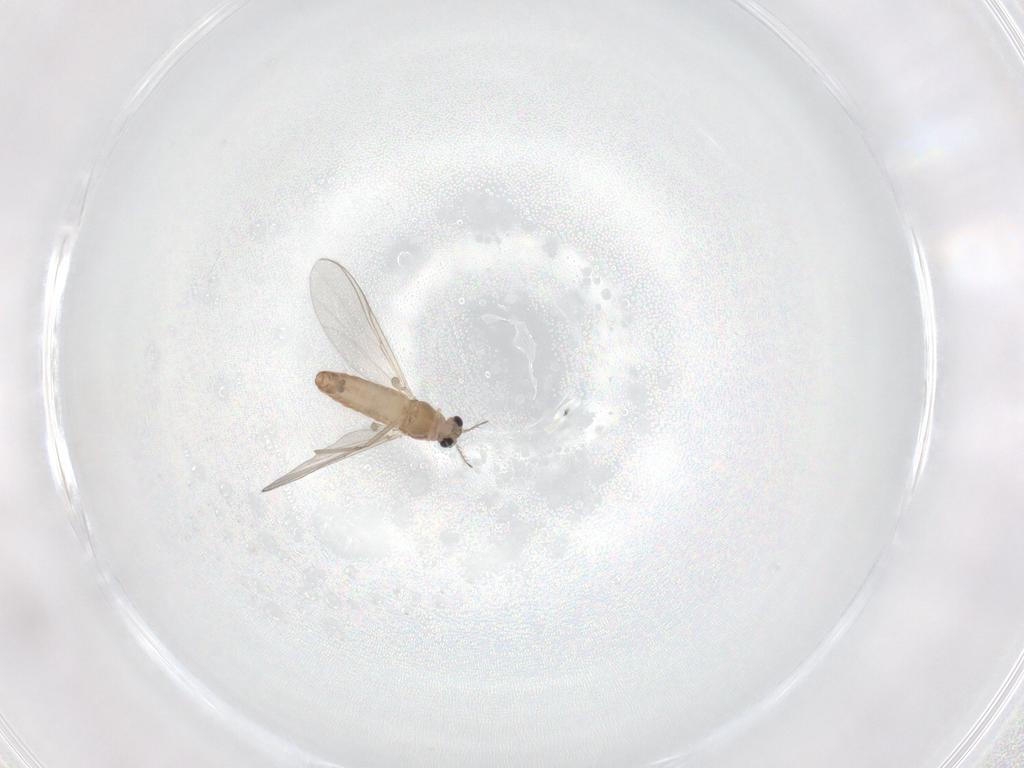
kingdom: Animalia
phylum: Arthropoda
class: Insecta
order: Diptera
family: Chironomidae
